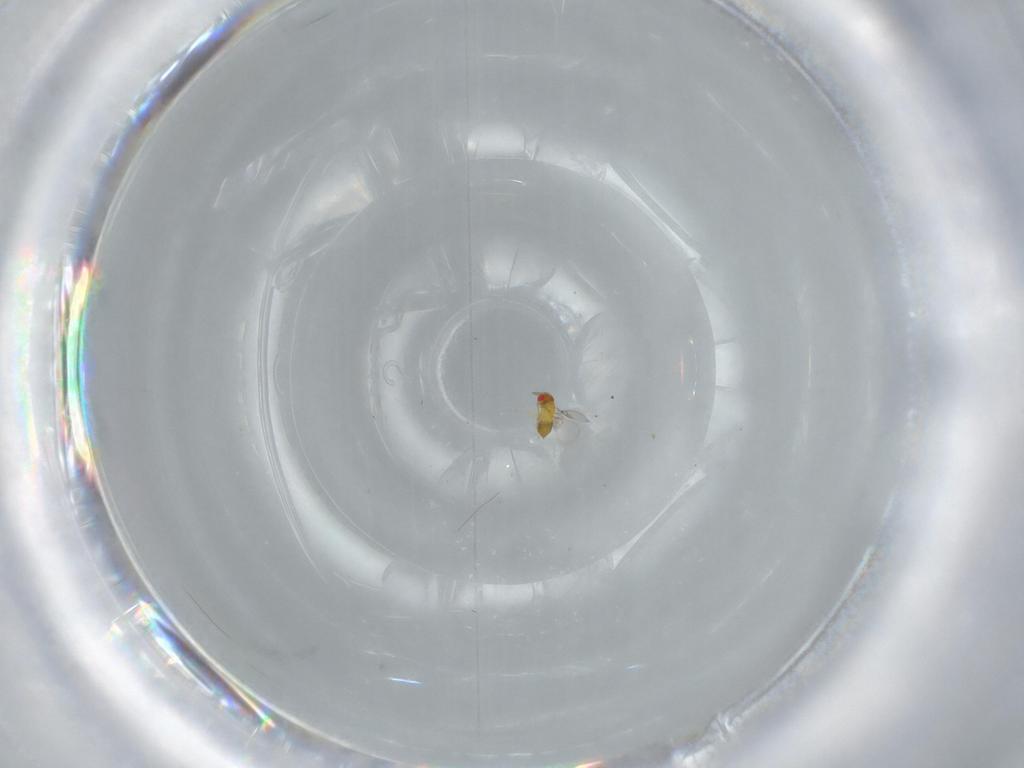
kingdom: Animalia
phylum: Arthropoda
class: Insecta
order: Hymenoptera
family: Trichogrammatidae
